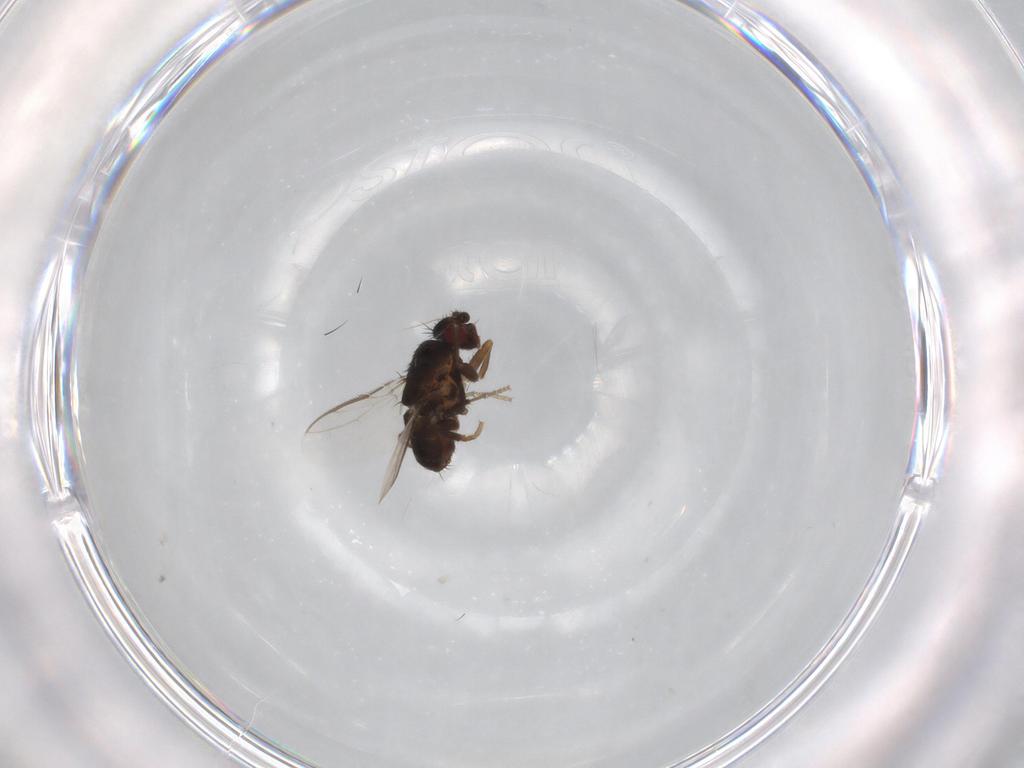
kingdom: Animalia
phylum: Arthropoda
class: Insecta
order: Diptera
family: Sphaeroceridae
